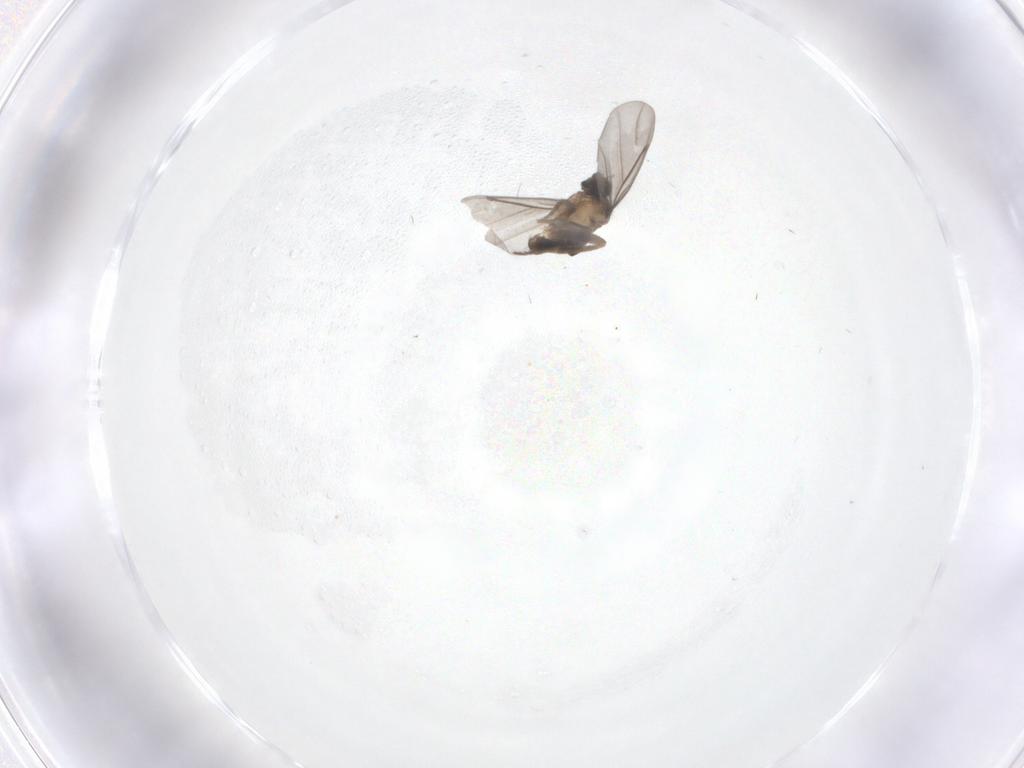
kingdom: Animalia
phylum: Arthropoda
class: Insecta
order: Diptera
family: Phoridae
